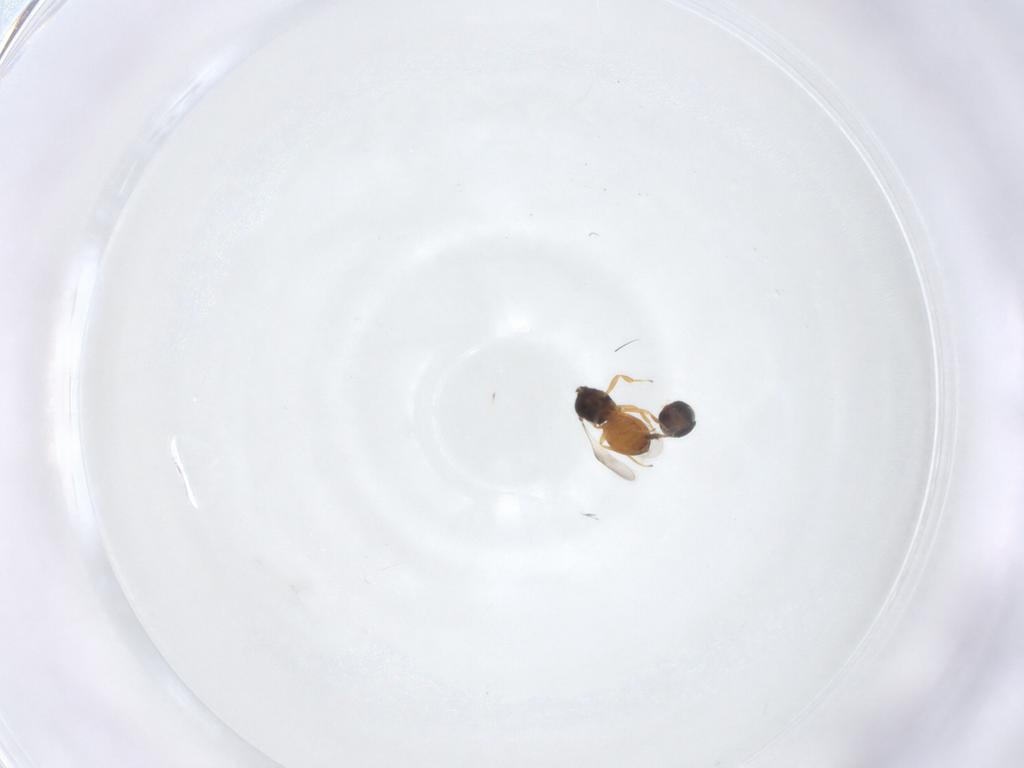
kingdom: Animalia
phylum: Arthropoda
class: Insecta
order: Hymenoptera
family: Scelionidae
